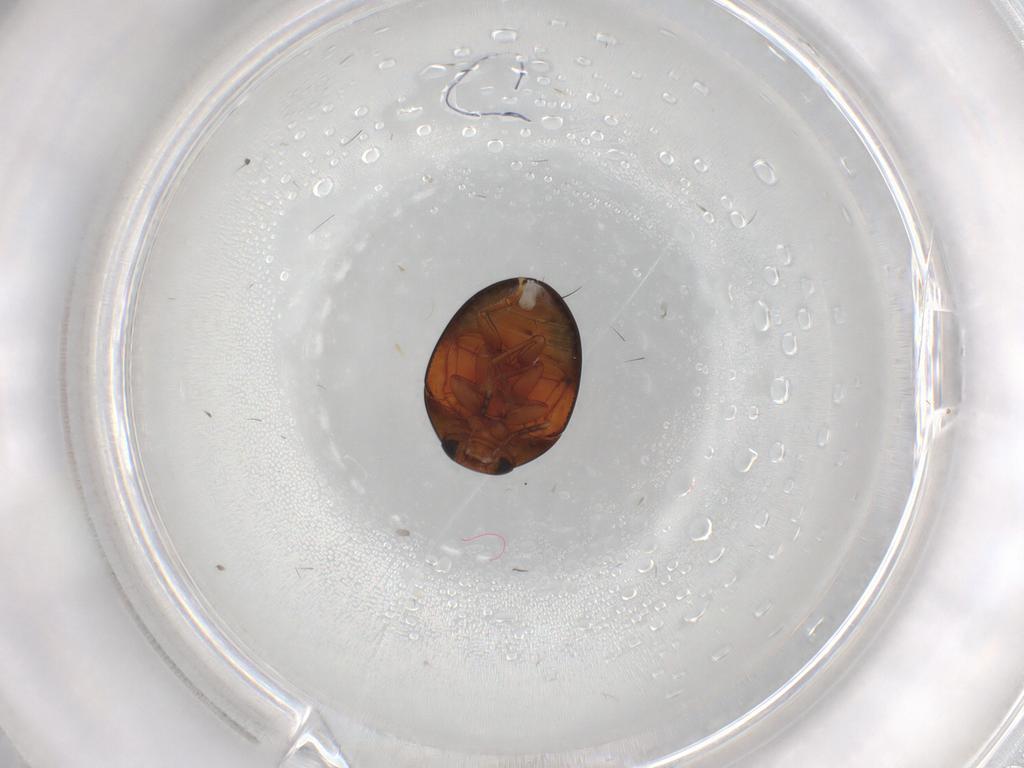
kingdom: Animalia
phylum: Arthropoda
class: Insecta
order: Coleoptera
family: Phalacridae
